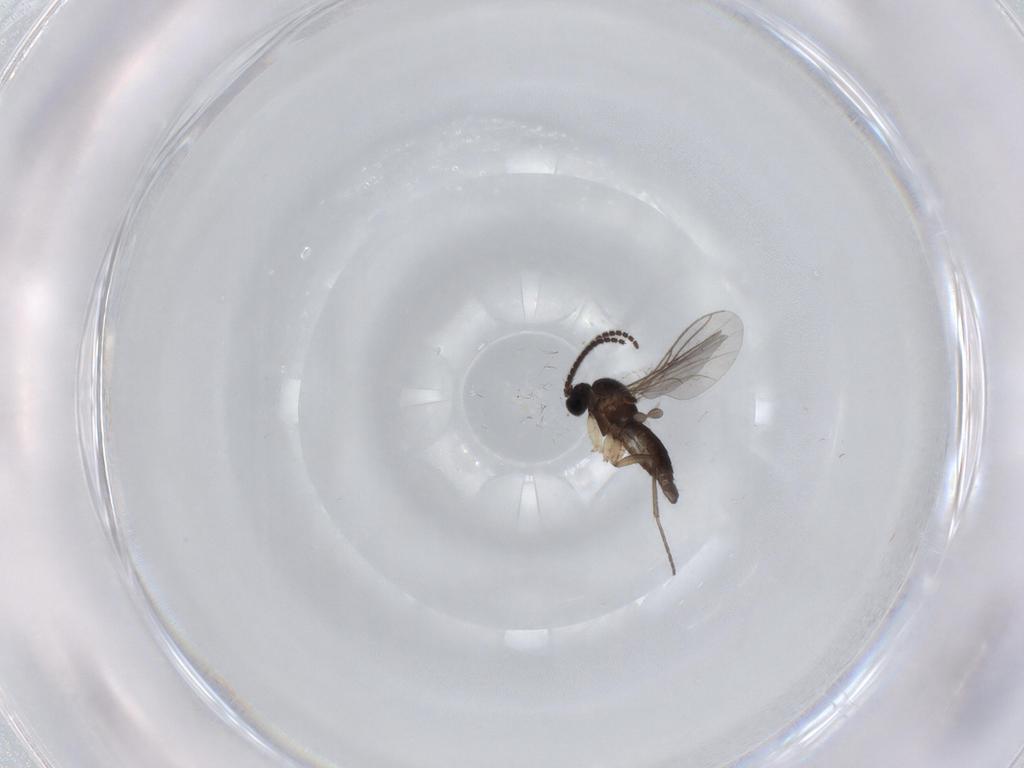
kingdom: Animalia
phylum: Arthropoda
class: Insecta
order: Diptera
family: Sciaridae
